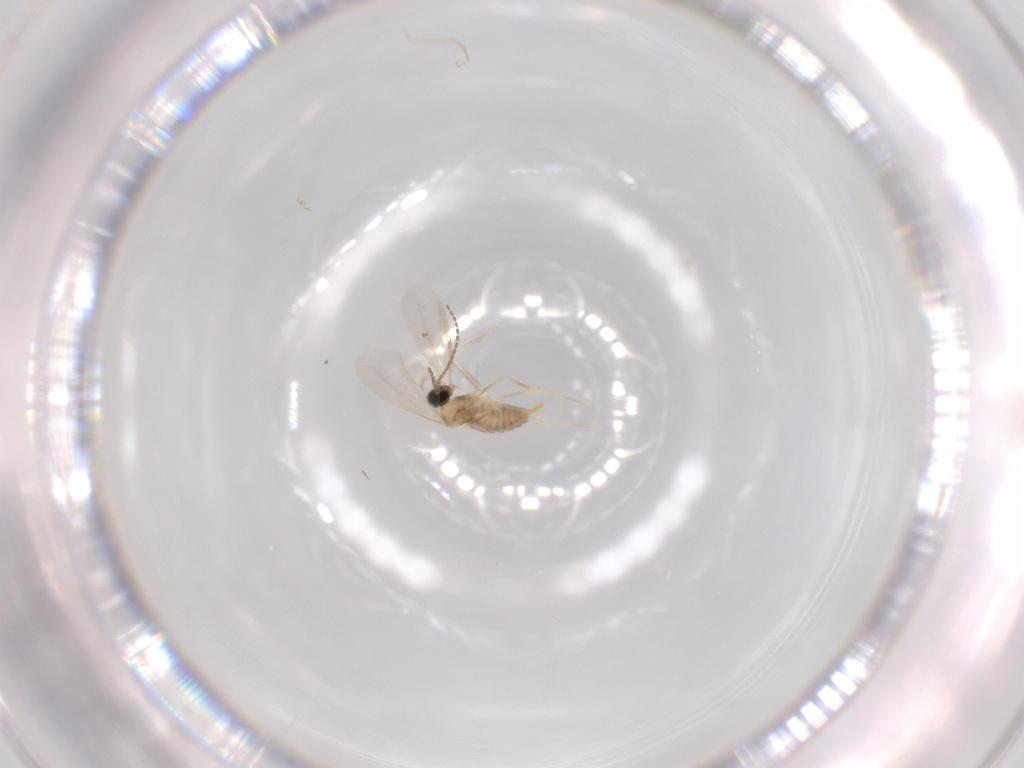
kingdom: Animalia
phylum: Arthropoda
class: Insecta
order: Diptera
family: Cecidomyiidae
